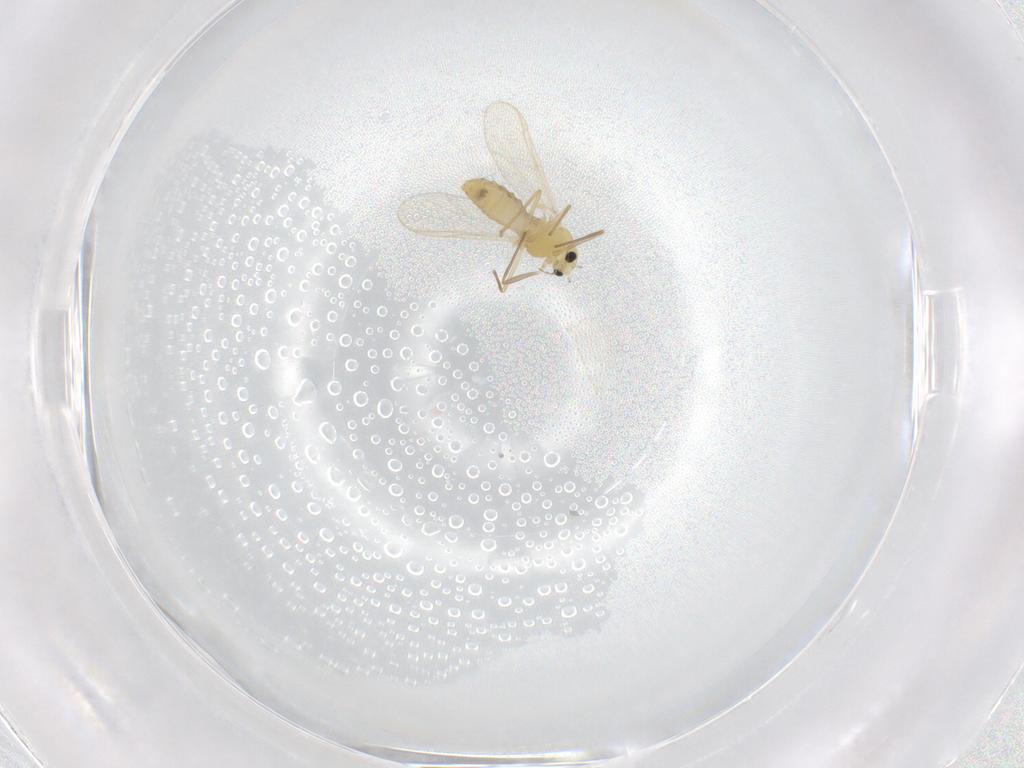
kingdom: Animalia
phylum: Arthropoda
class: Insecta
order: Diptera
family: Chironomidae
